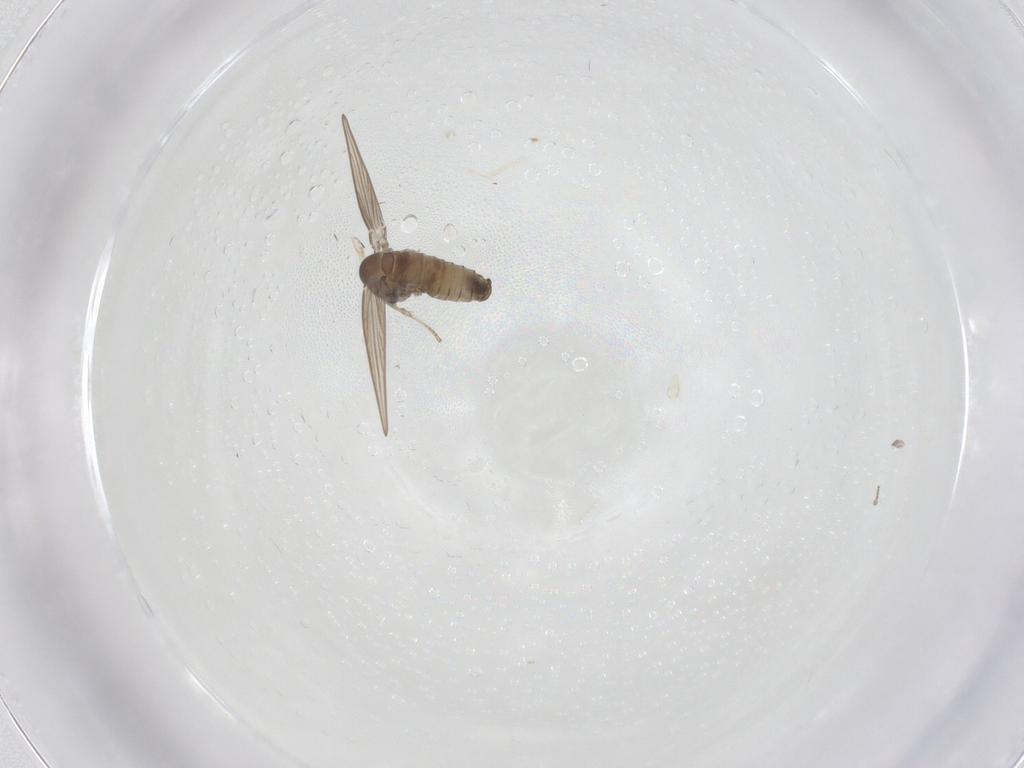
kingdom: Animalia
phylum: Arthropoda
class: Insecta
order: Diptera
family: Psychodidae
